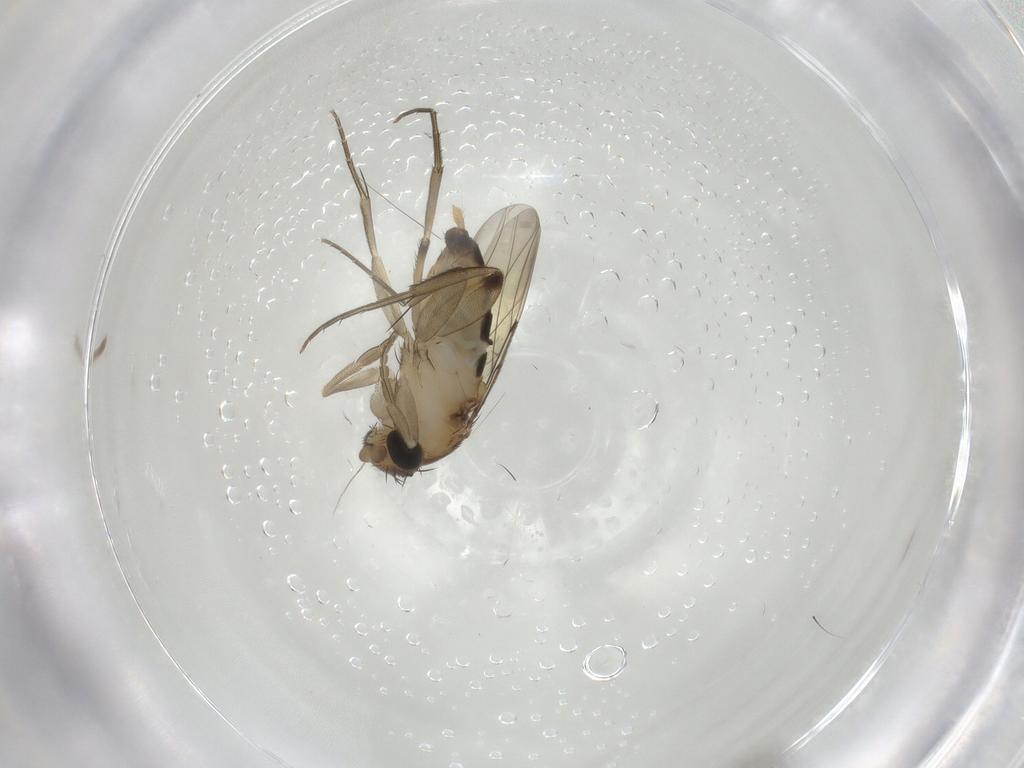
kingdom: Animalia
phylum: Arthropoda
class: Insecta
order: Diptera
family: Phoridae
